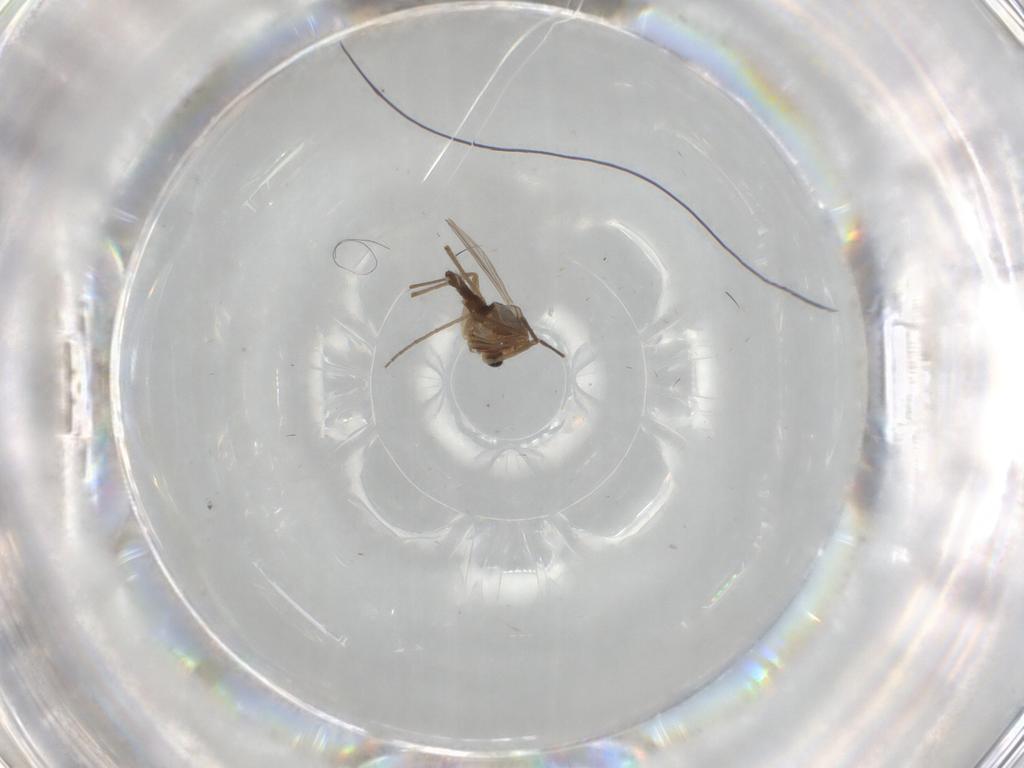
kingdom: Animalia
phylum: Arthropoda
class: Insecta
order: Diptera
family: Chironomidae
